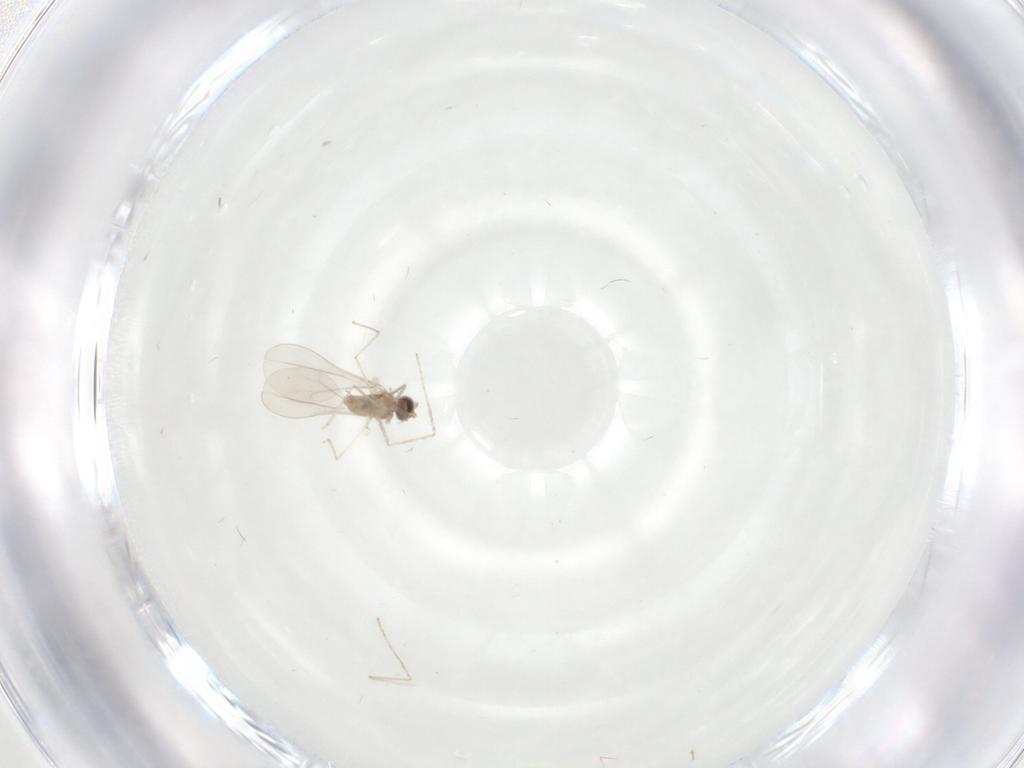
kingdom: Animalia
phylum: Arthropoda
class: Insecta
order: Diptera
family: Cecidomyiidae
